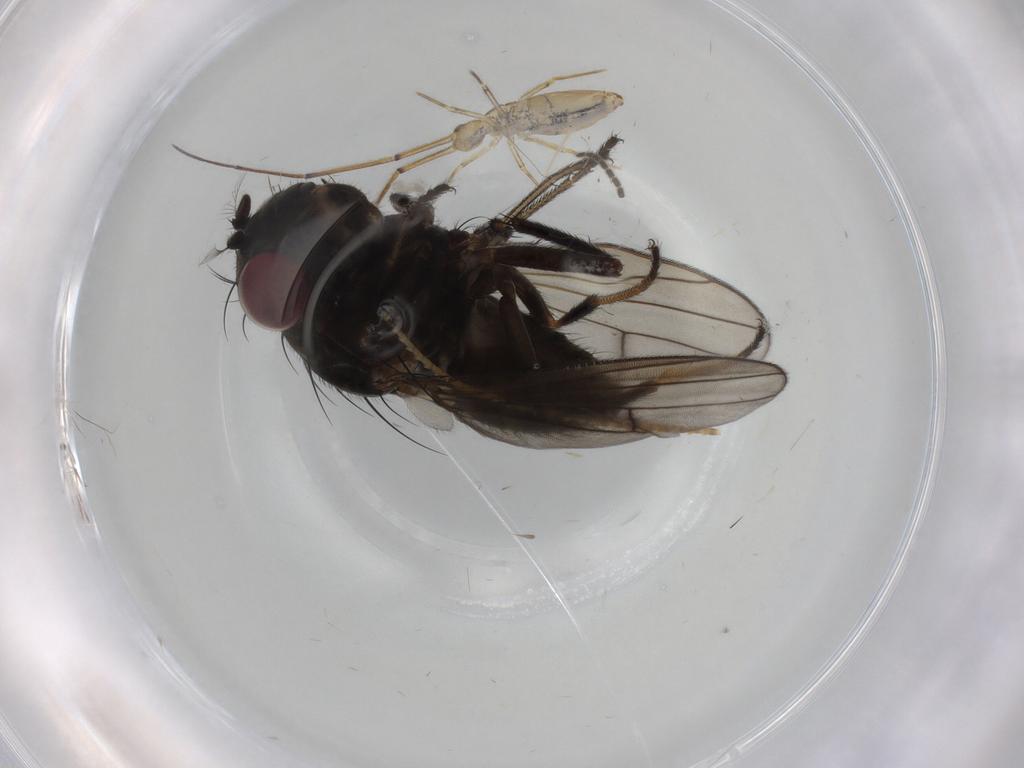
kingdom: Animalia
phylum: Arthropoda
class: Insecta
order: Diptera
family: Ephydridae
